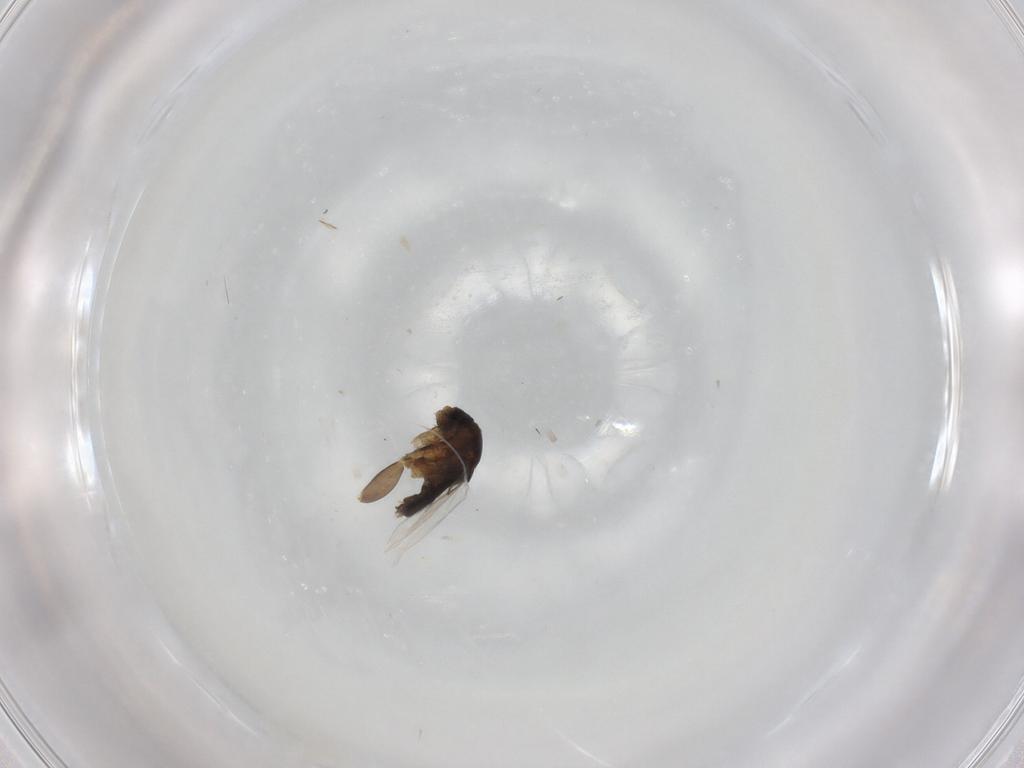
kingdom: Animalia
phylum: Arthropoda
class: Insecta
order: Diptera
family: Phoridae
